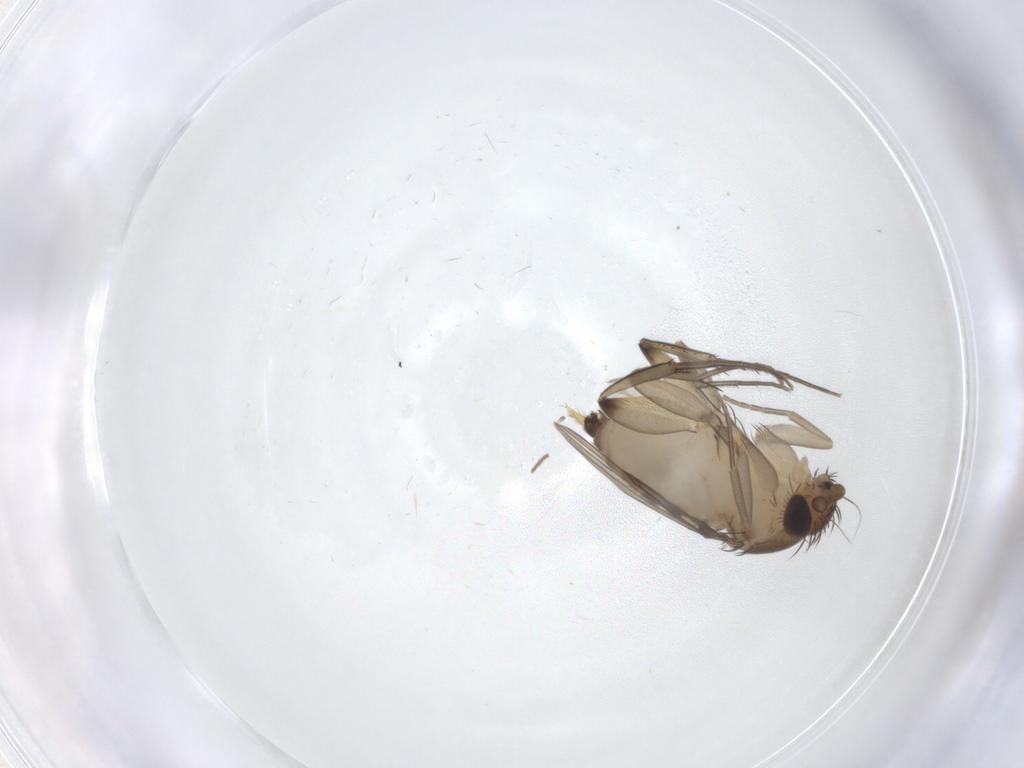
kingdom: Animalia
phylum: Arthropoda
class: Insecta
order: Diptera
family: Phoridae
